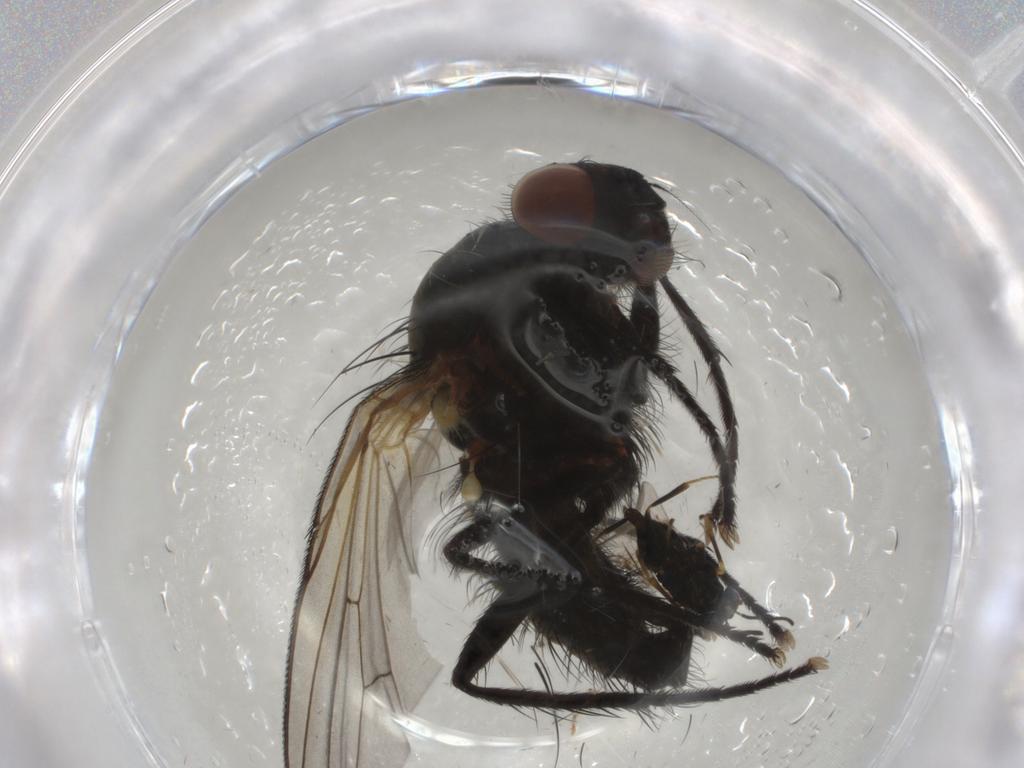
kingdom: Animalia
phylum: Arthropoda
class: Insecta
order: Diptera
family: Anthomyiidae
